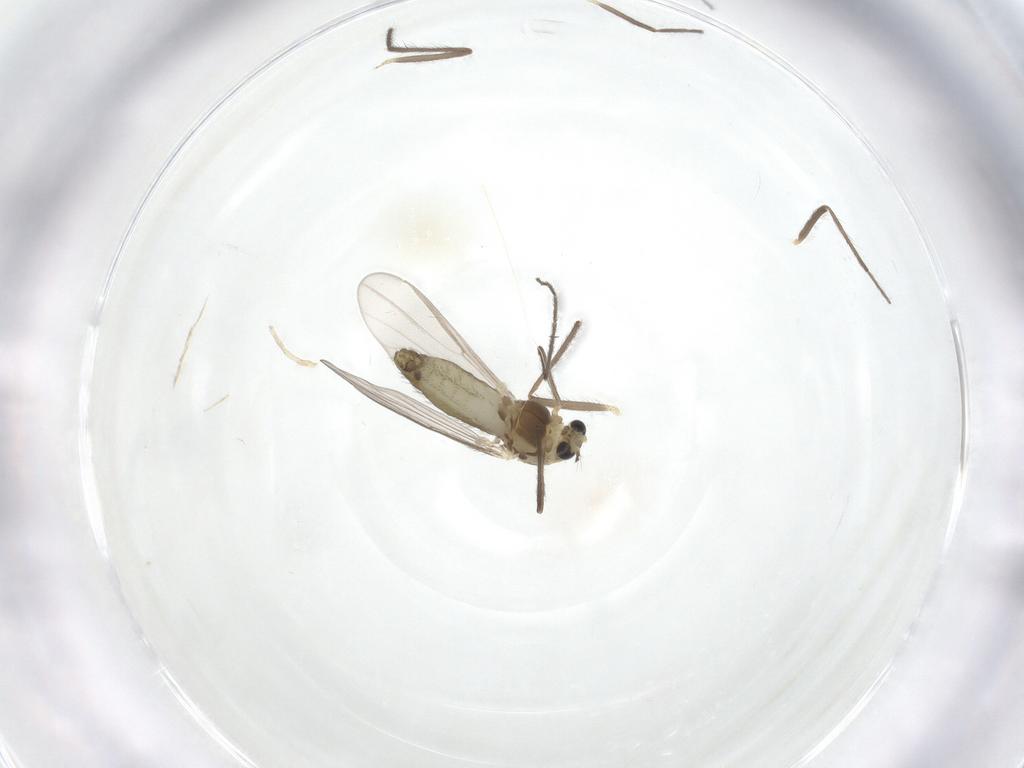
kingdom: Animalia
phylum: Arthropoda
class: Insecta
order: Diptera
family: Chironomidae
